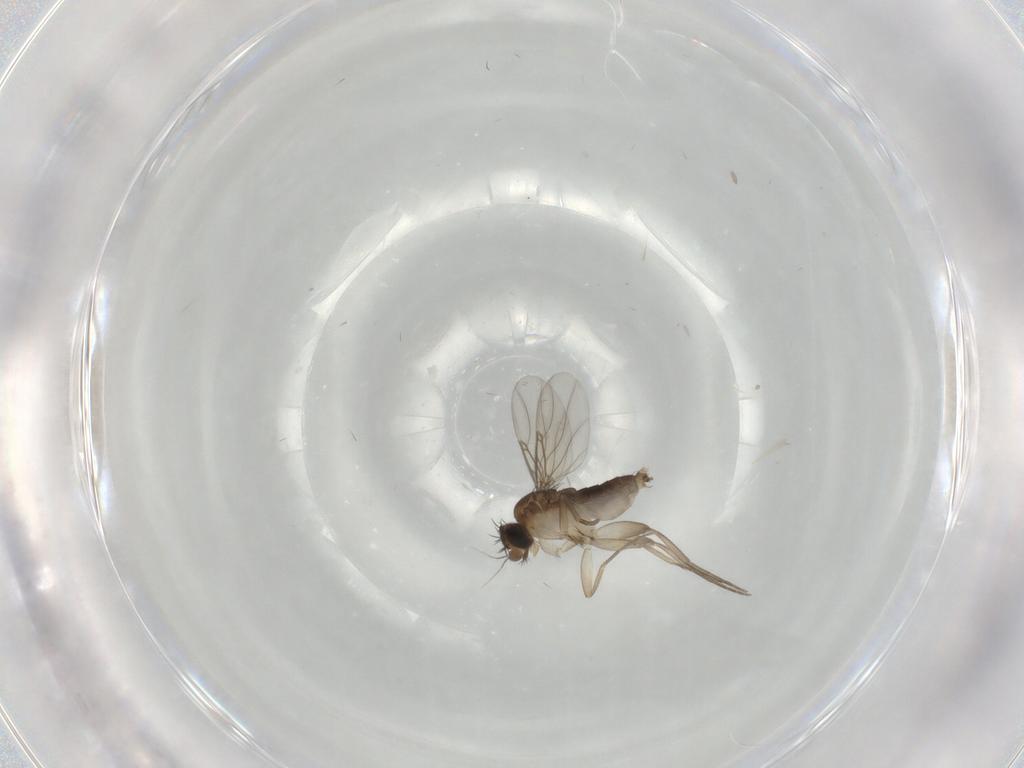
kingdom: Animalia
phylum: Arthropoda
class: Insecta
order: Diptera
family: Phoridae
